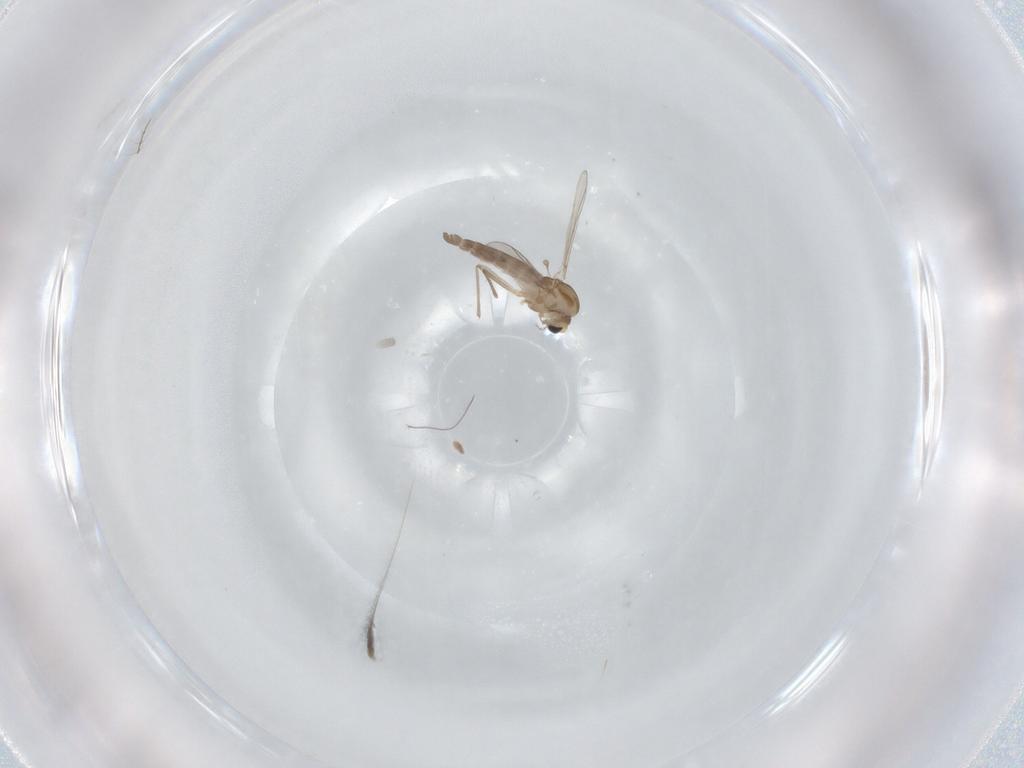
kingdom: Animalia
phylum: Arthropoda
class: Insecta
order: Diptera
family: Cecidomyiidae
